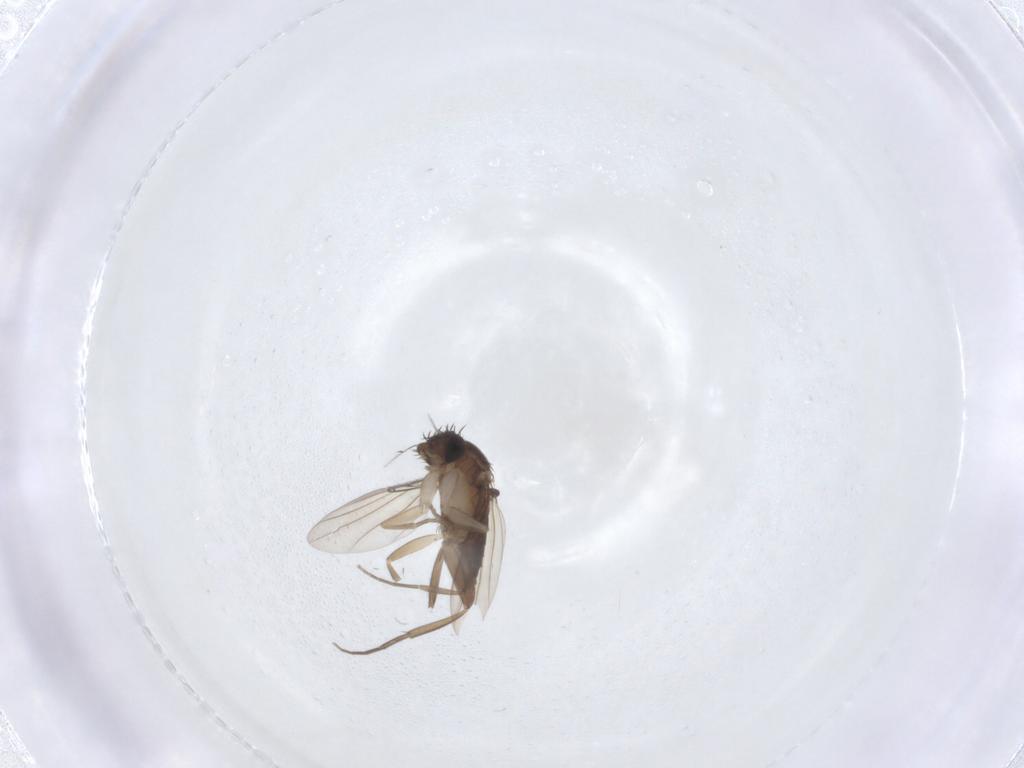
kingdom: Animalia
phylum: Arthropoda
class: Insecta
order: Diptera
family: Phoridae
